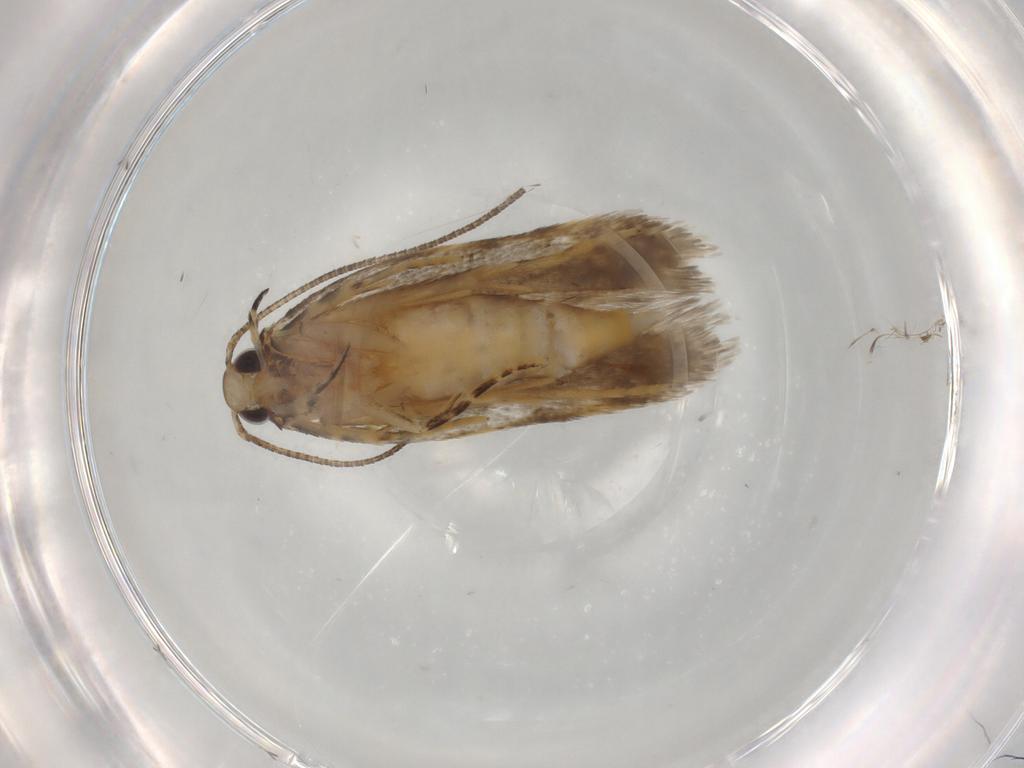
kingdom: Animalia
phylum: Arthropoda
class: Insecta
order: Lepidoptera
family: Autostichidae
